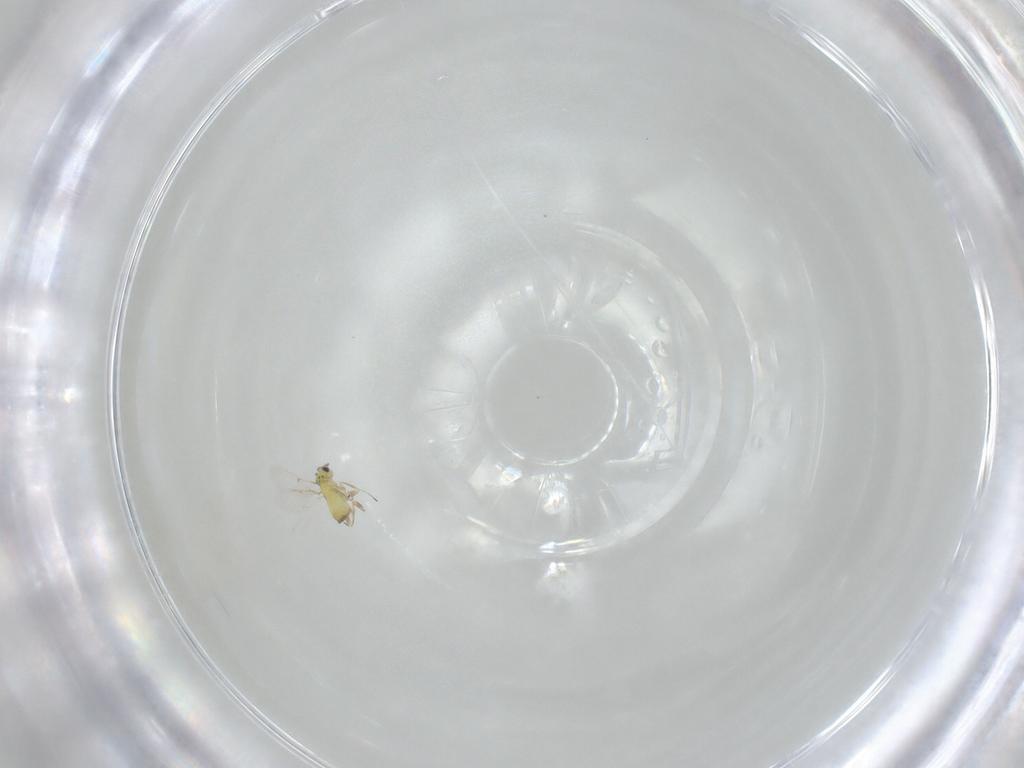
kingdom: Animalia
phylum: Arthropoda
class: Insecta
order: Hymenoptera
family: Trichogrammatidae
